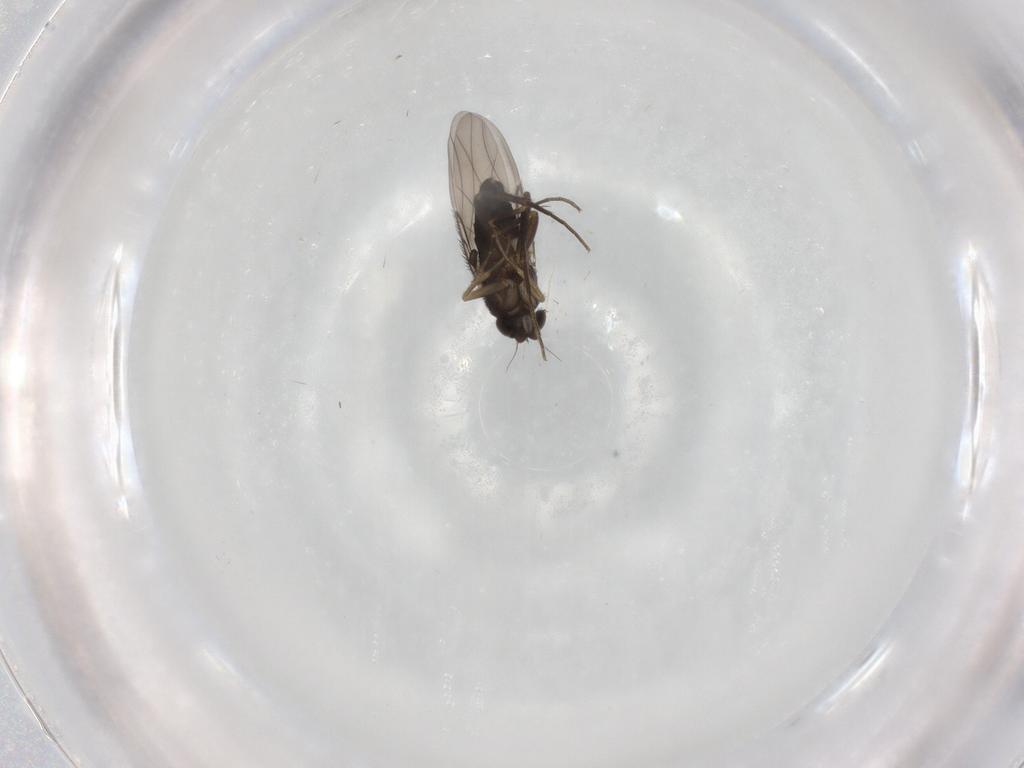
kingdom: Animalia
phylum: Arthropoda
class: Insecta
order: Diptera
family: Phoridae
